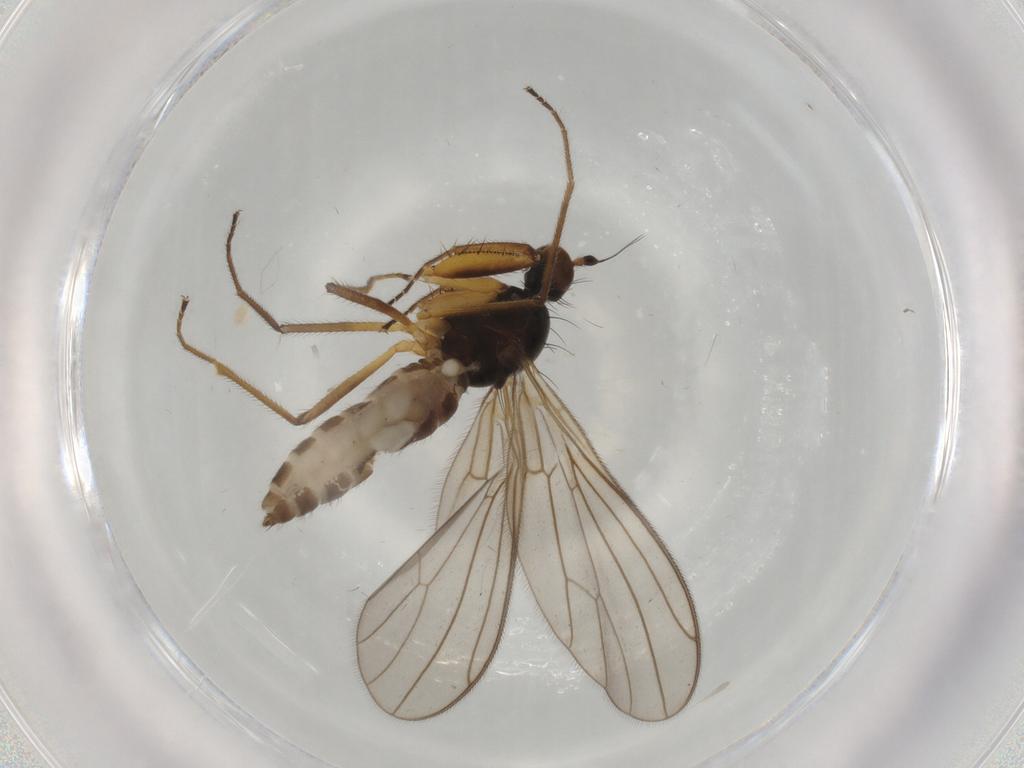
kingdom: Animalia
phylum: Arthropoda
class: Insecta
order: Diptera
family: Empididae
